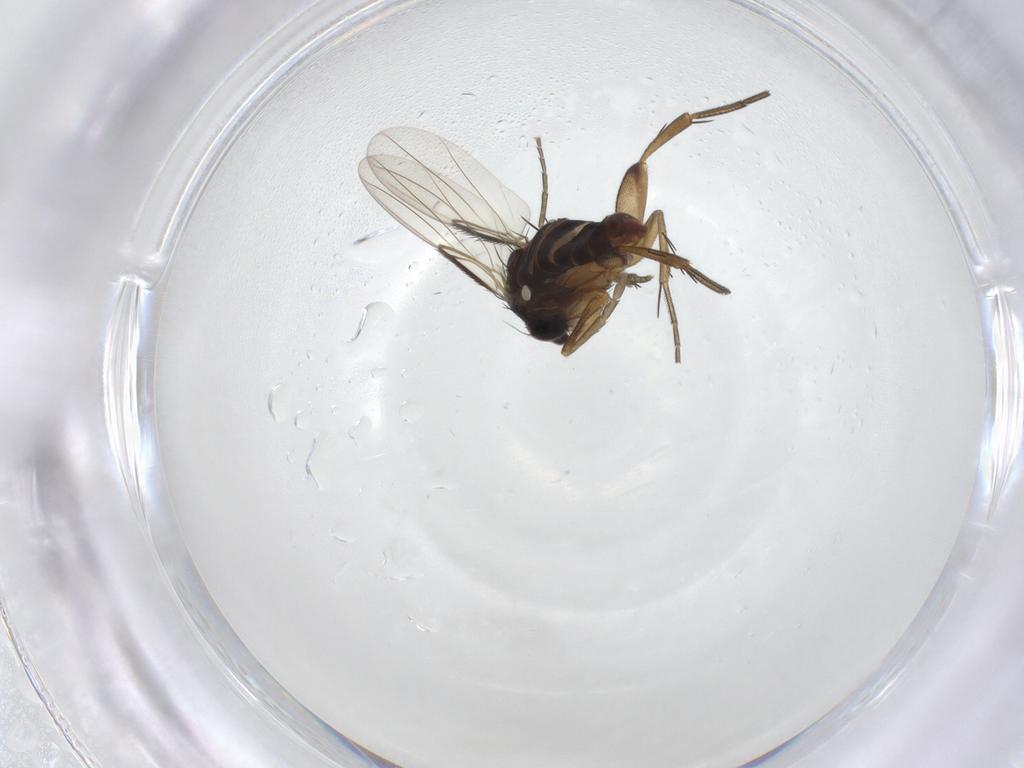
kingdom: Animalia
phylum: Arthropoda
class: Insecta
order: Diptera
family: Phoridae
